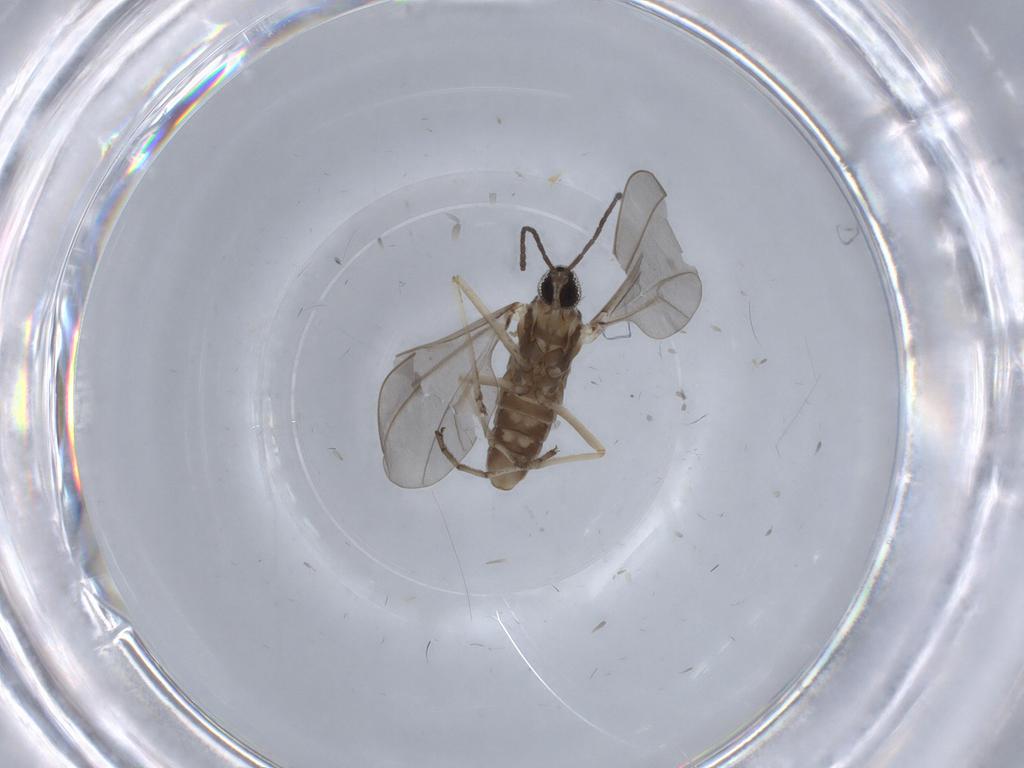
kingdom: Animalia
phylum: Arthropoda
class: Insecta
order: Diptera
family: Cecidomyiidae
